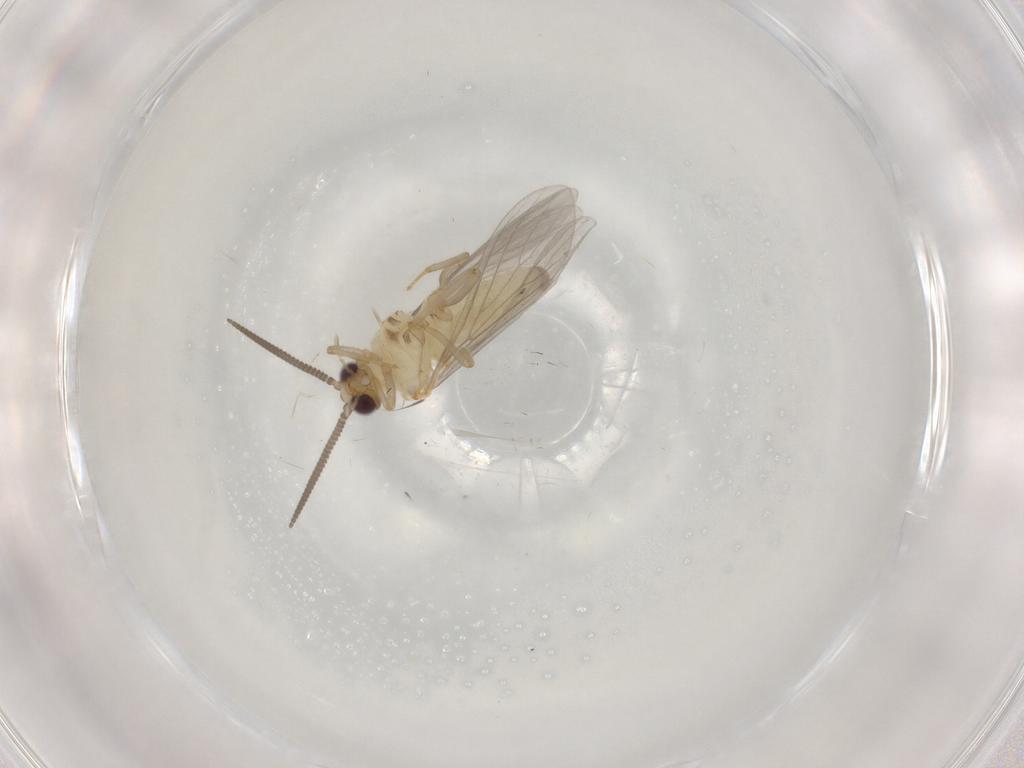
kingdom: Animalia
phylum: Arthropoda
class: Insecta
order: Neuroptera
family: Coniopterygidae
